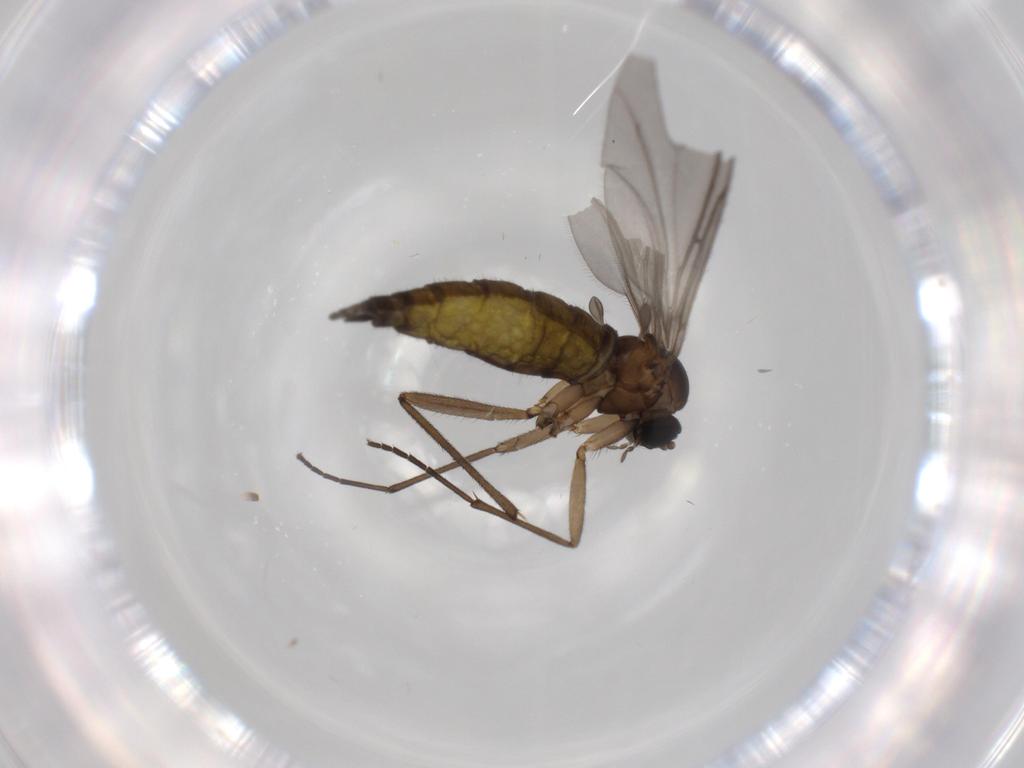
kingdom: Animalia
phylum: Arthropoda
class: Insecta
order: Diptera
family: Sciaridae
